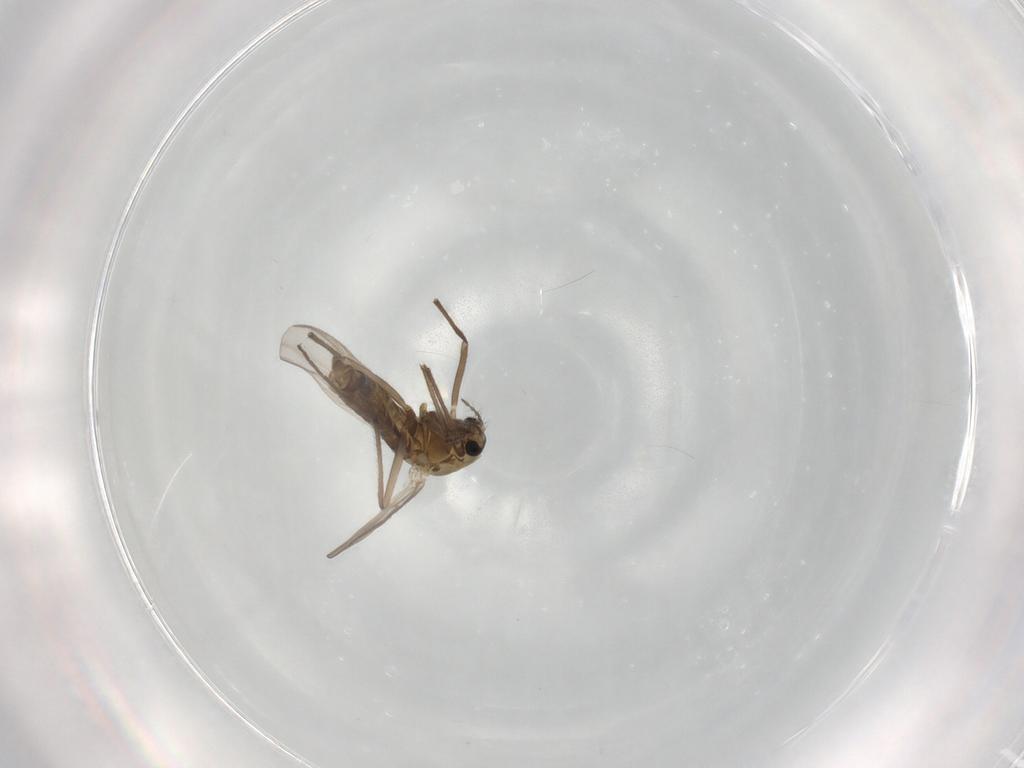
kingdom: Animalia
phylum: Arthropoda
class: Insecta
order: Diptera
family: Chironomidae
